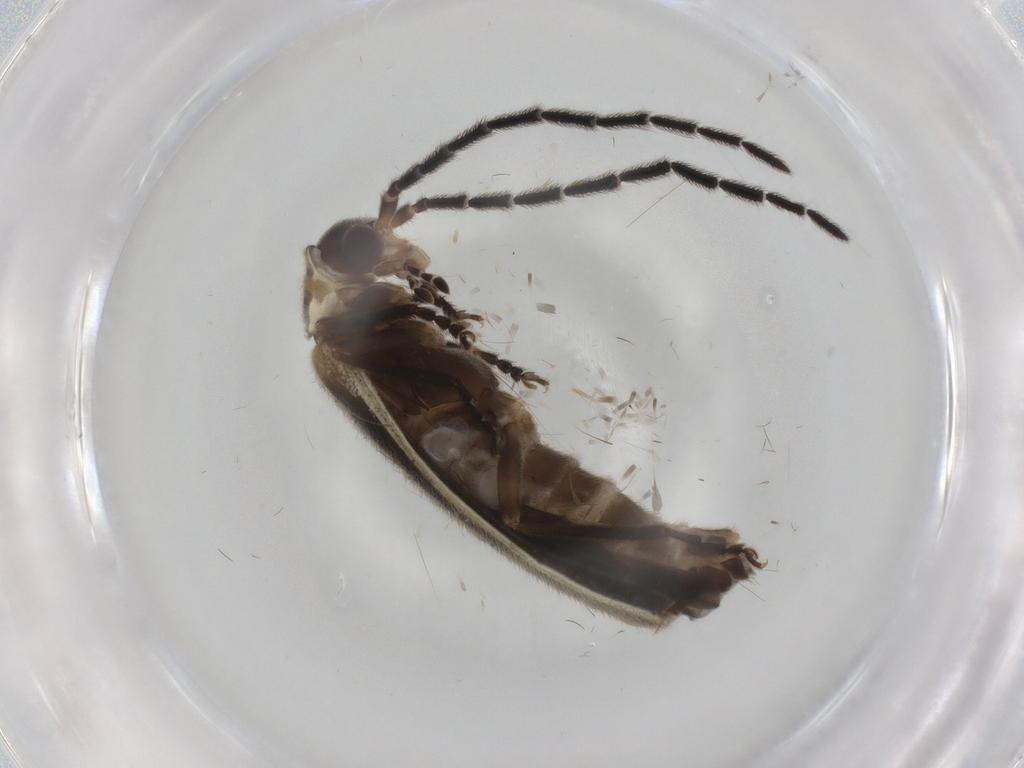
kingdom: Animalia
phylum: Arthropoda
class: Insecta
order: Coleoptera
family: Cantharidae
